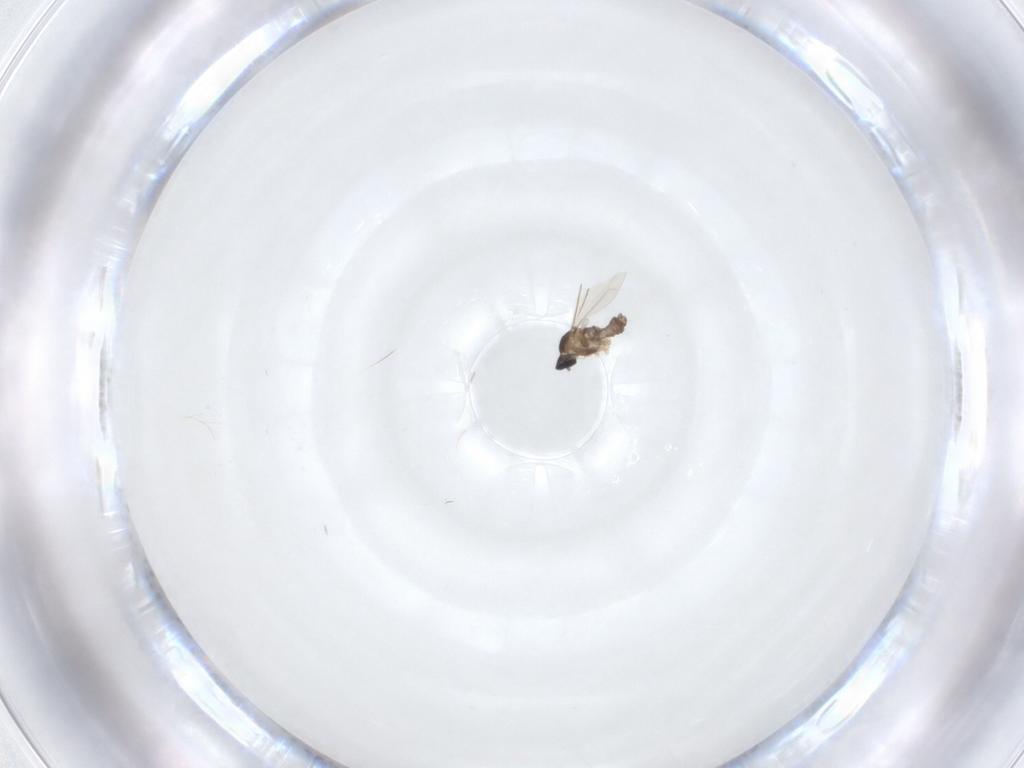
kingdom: Animalia
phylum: Arthropoda
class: Insecta
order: Diptera
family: Cecidomyiidae
